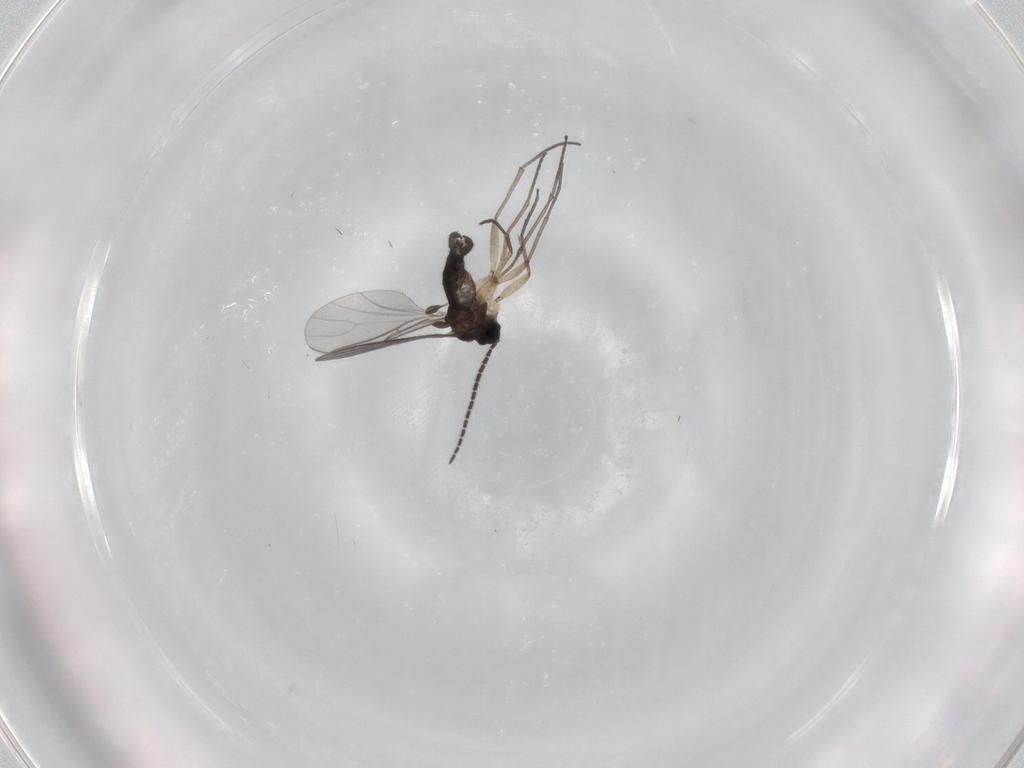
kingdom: Animalia
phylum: Arthropoda
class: Insecta
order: Diptera
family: Sciaridae
